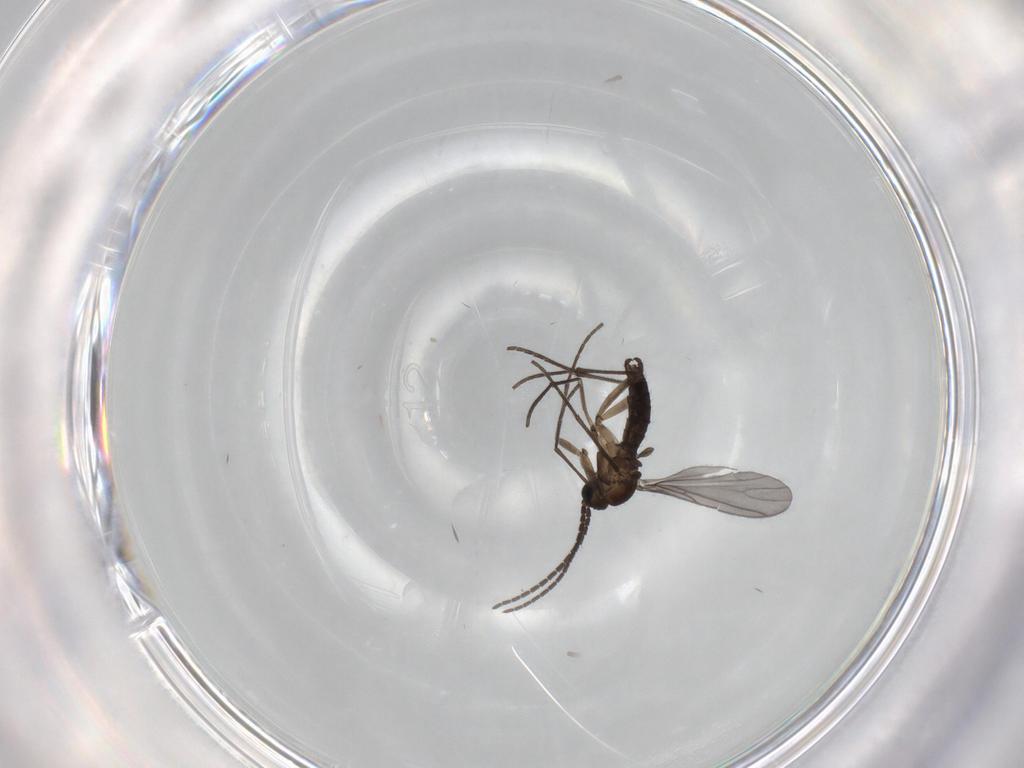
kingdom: Animalia
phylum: Arthropoda
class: Insecta
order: Diptera
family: Sciaridae
